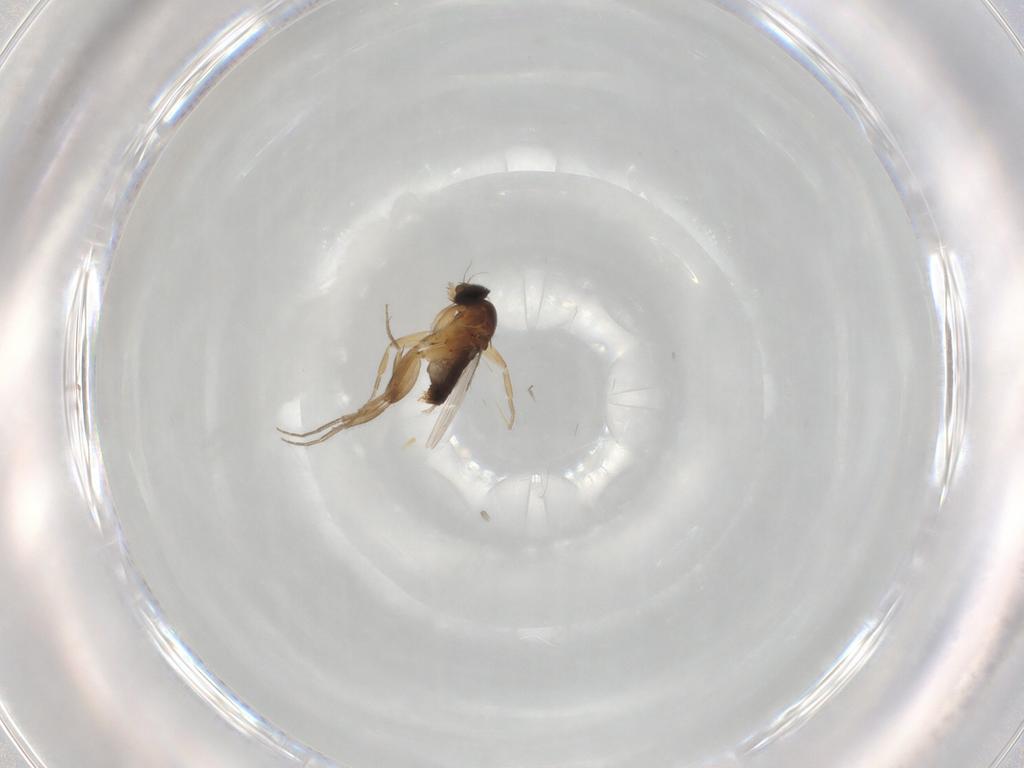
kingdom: Animalia
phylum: Arthropoda
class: Insecta
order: Diptera
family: Phoridae
